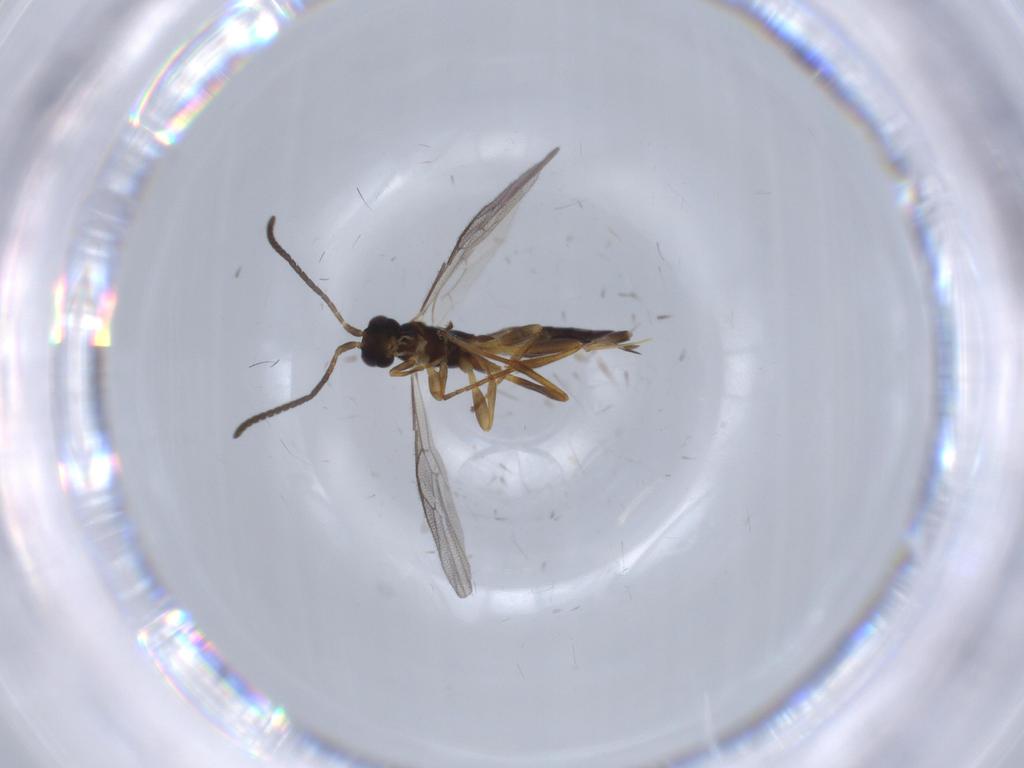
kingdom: Animalia
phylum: Arthropoda
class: Insecta
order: Hymenoptera
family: Ichneumonidae
